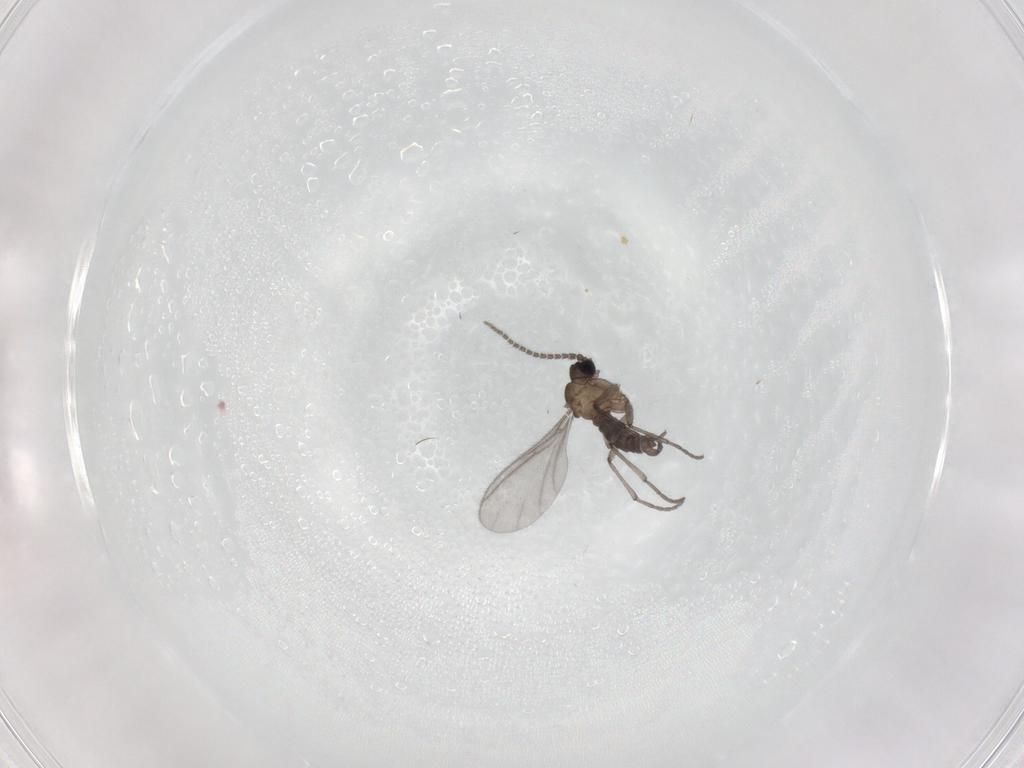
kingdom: Animalia
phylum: Arthropoda
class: Insecta
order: Diptera
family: Sciaridae
